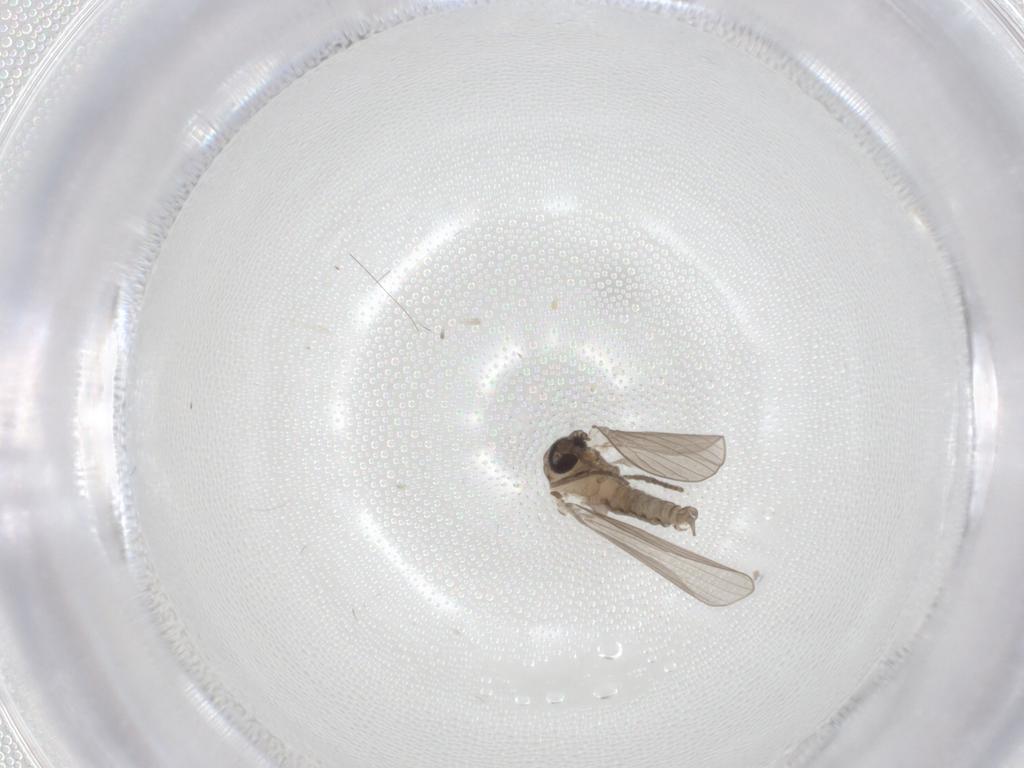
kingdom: Animalia
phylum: Arthropoda
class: Insecta
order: Diptera
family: Psychodidae
